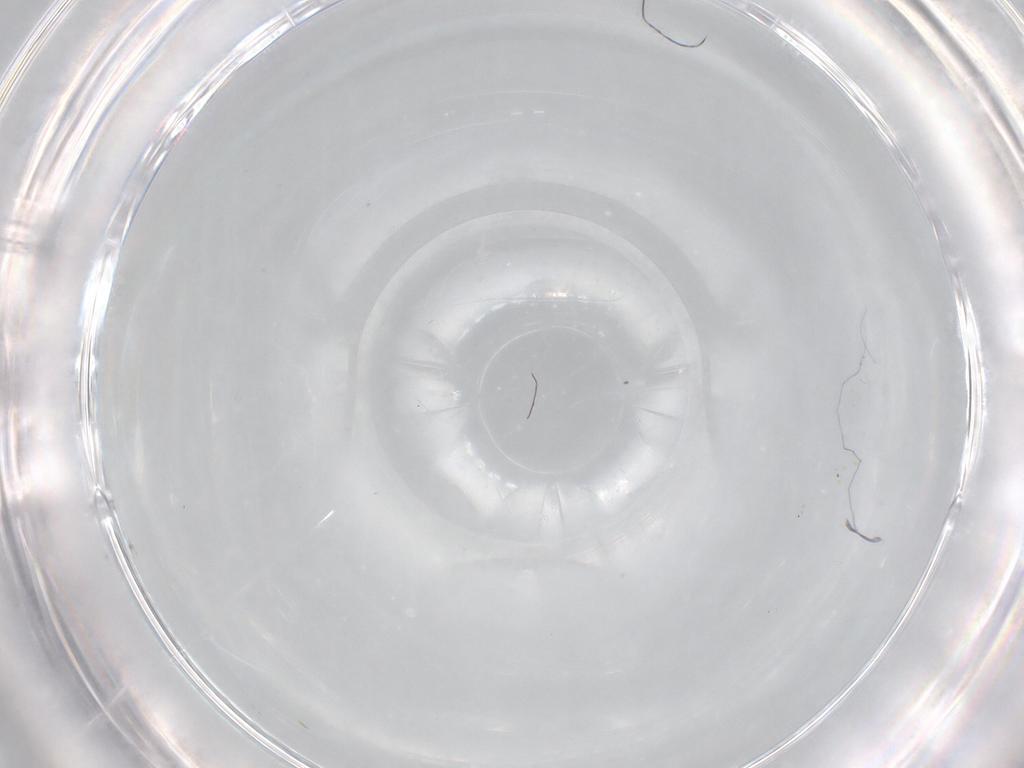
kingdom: Animalia
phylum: Arthropoda
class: Insecta
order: Diptera
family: Syrphidae
